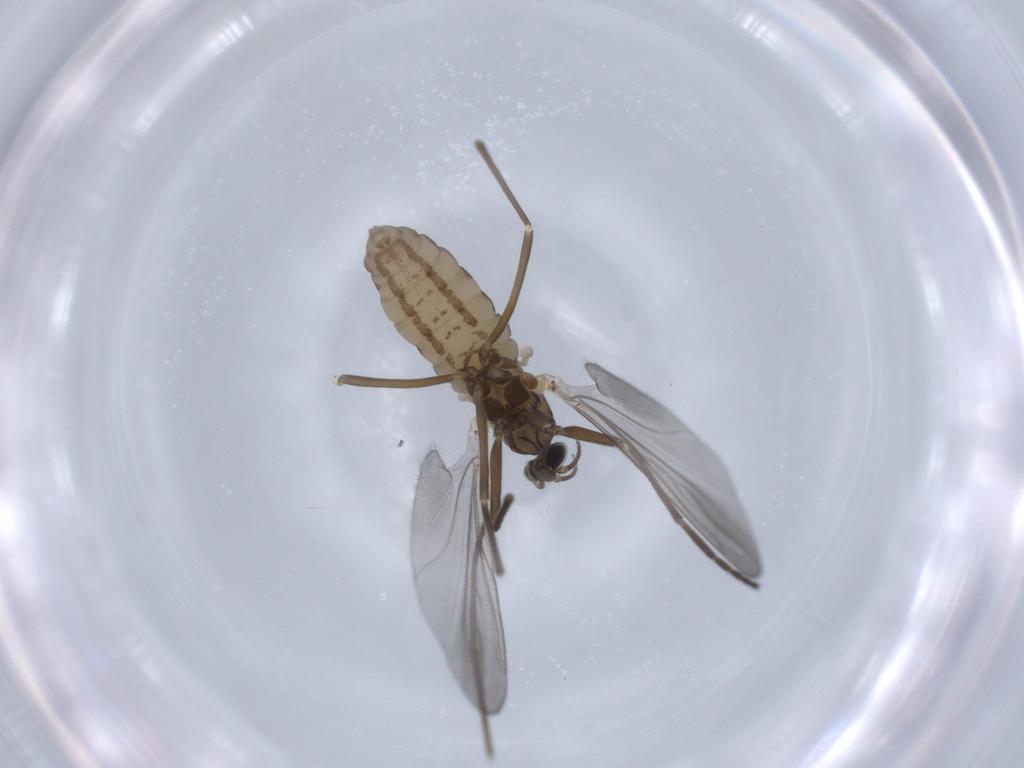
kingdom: Animalia
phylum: Arthropoda
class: Insecta
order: Diptera
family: Cecidomyiidae
